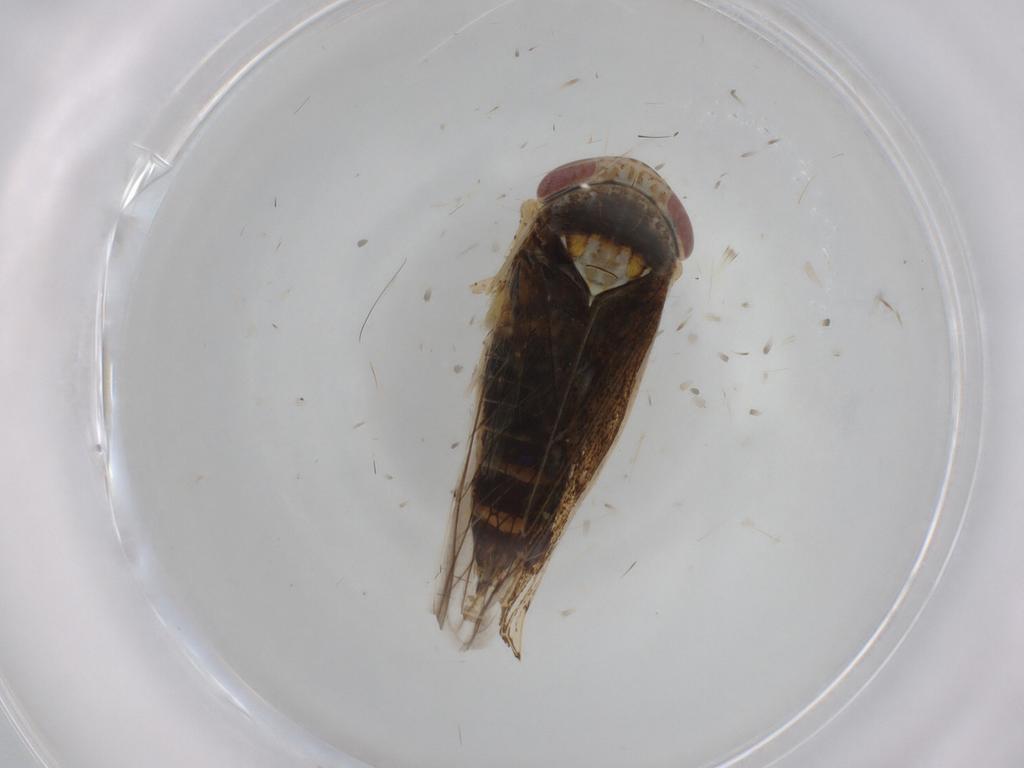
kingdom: Animalia
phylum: Arthropoda
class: Insecta
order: Hemiptera
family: Cicadellidae
